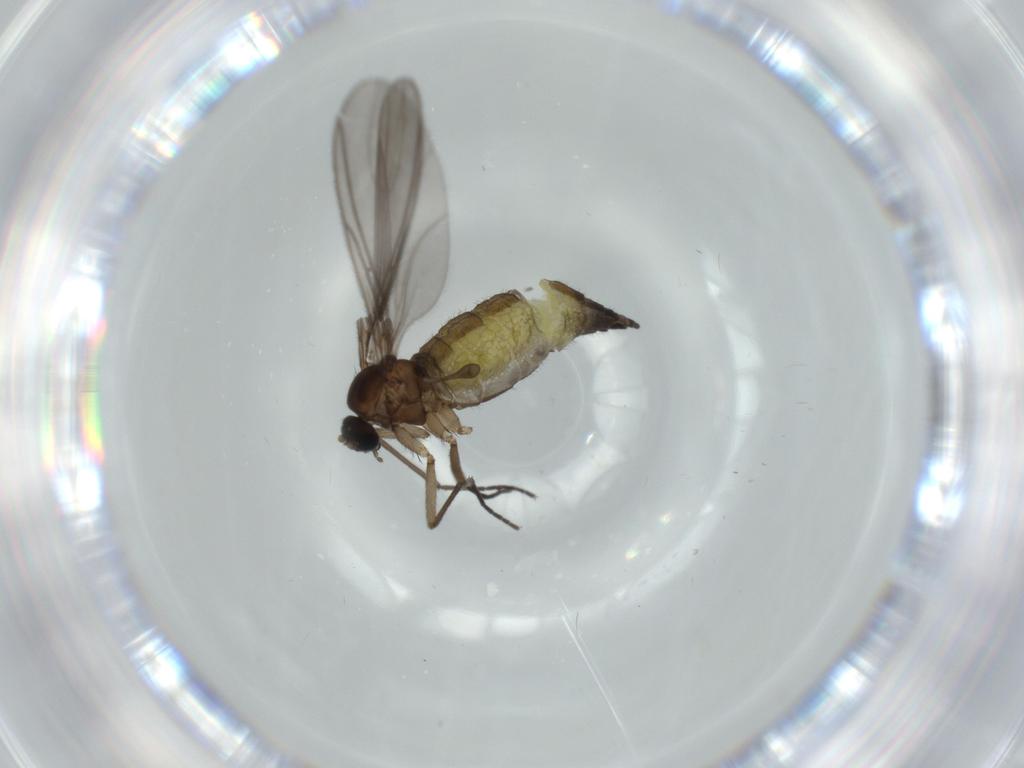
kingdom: Animalia
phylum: Arthropoda
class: Insecta
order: Diptera
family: Sciaridae
